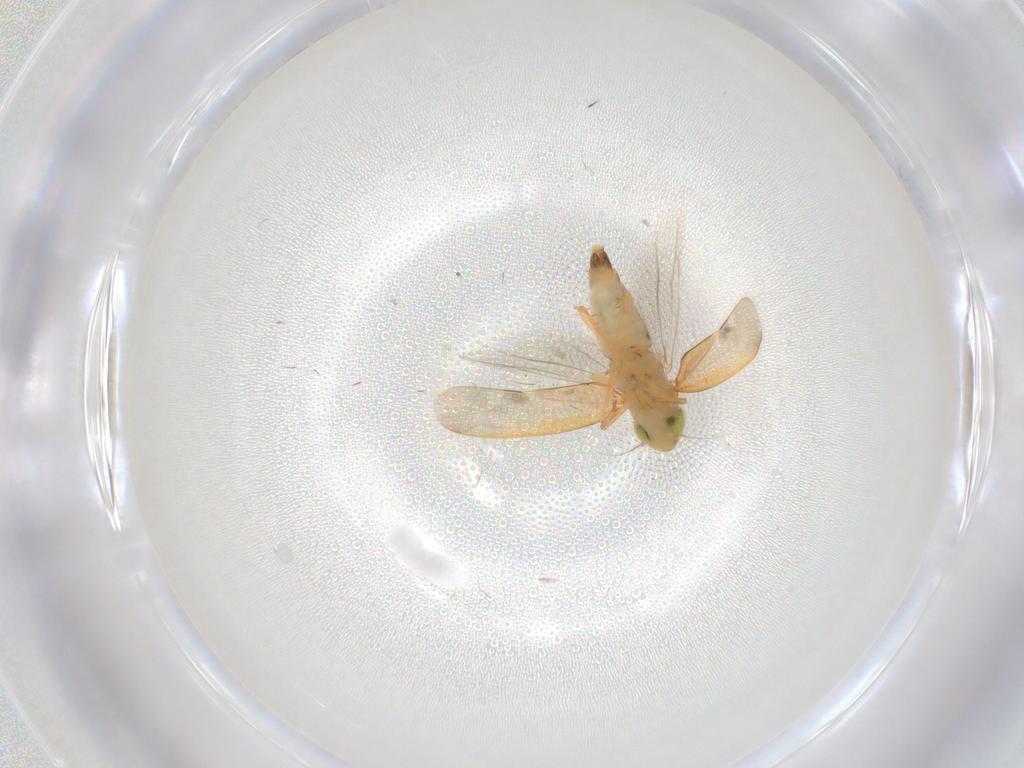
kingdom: Animalia
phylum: Arthropoda
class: Insecta
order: Hemiptera
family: Cicadellidae
